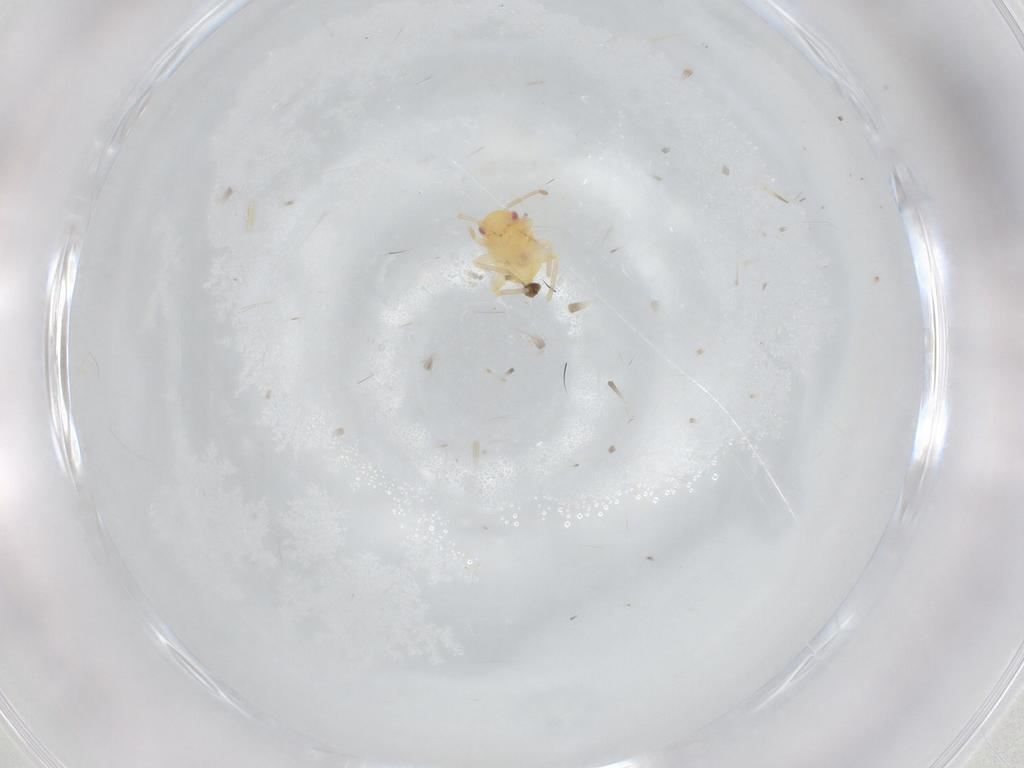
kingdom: Animalia
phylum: Arthropoda
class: Insecta
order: Hemiptera
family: Miridae
